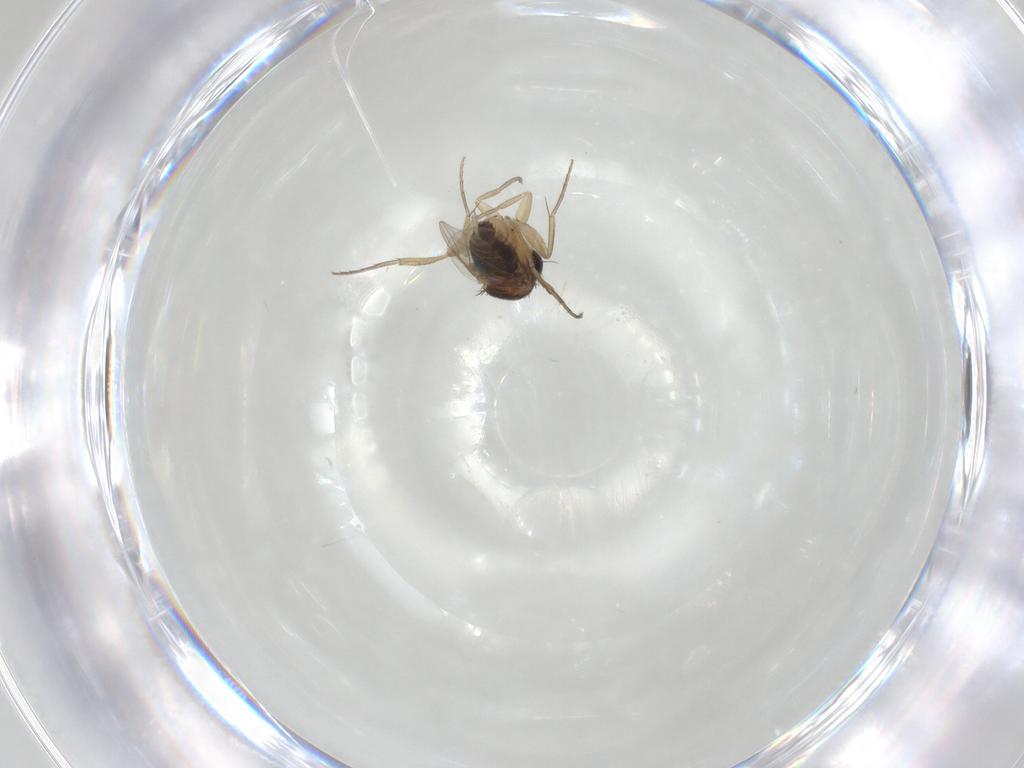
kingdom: Animalia
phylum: Arthropoda
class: Insecta
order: Diptera
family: Phoridae
